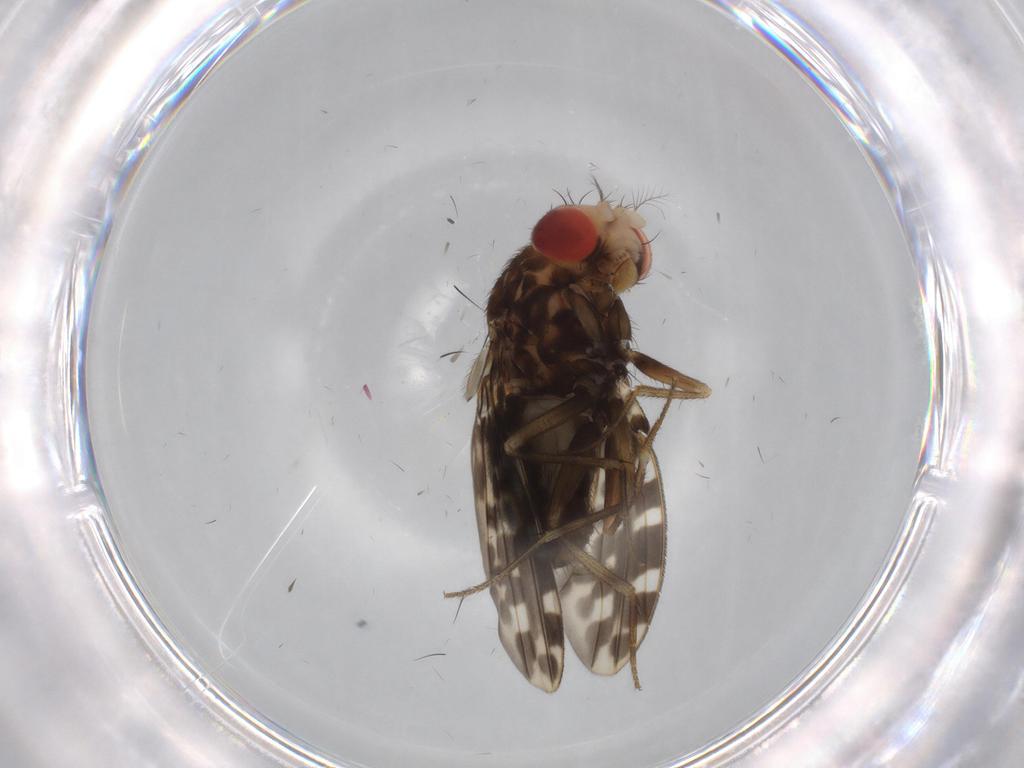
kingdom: Animalia
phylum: Arthropoda
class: Insecta
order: Diptera
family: Drosophilidae
